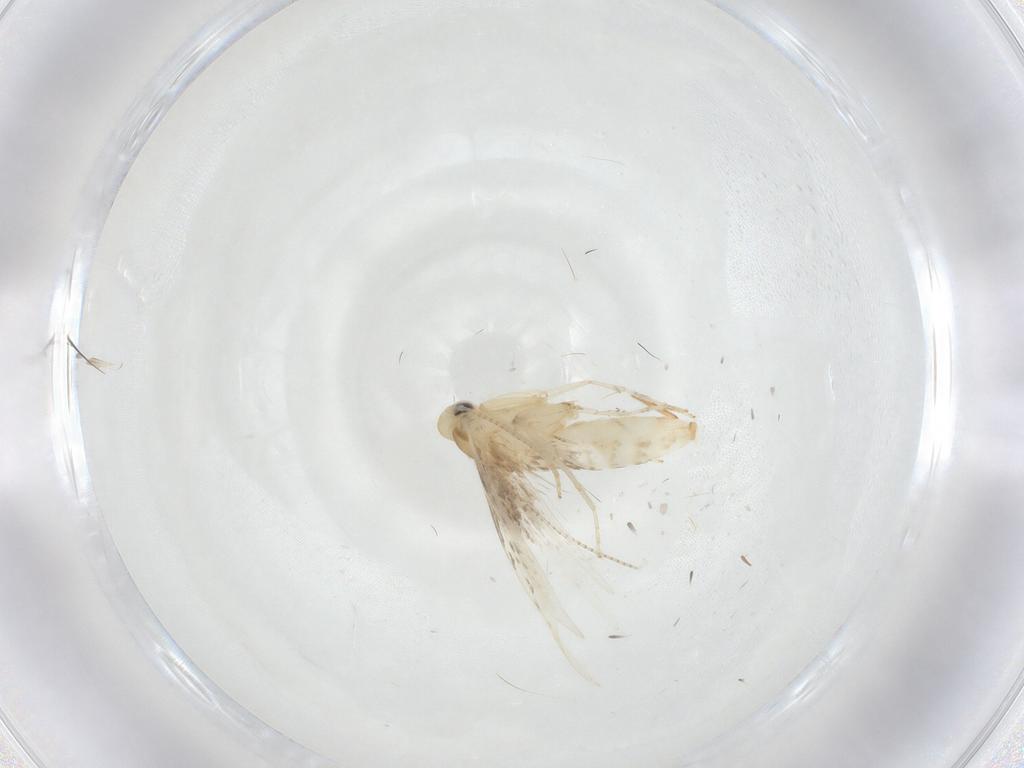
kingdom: Animalia
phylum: Arthropoda
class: Insecta
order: Lepidoptera
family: Gracillariidae
